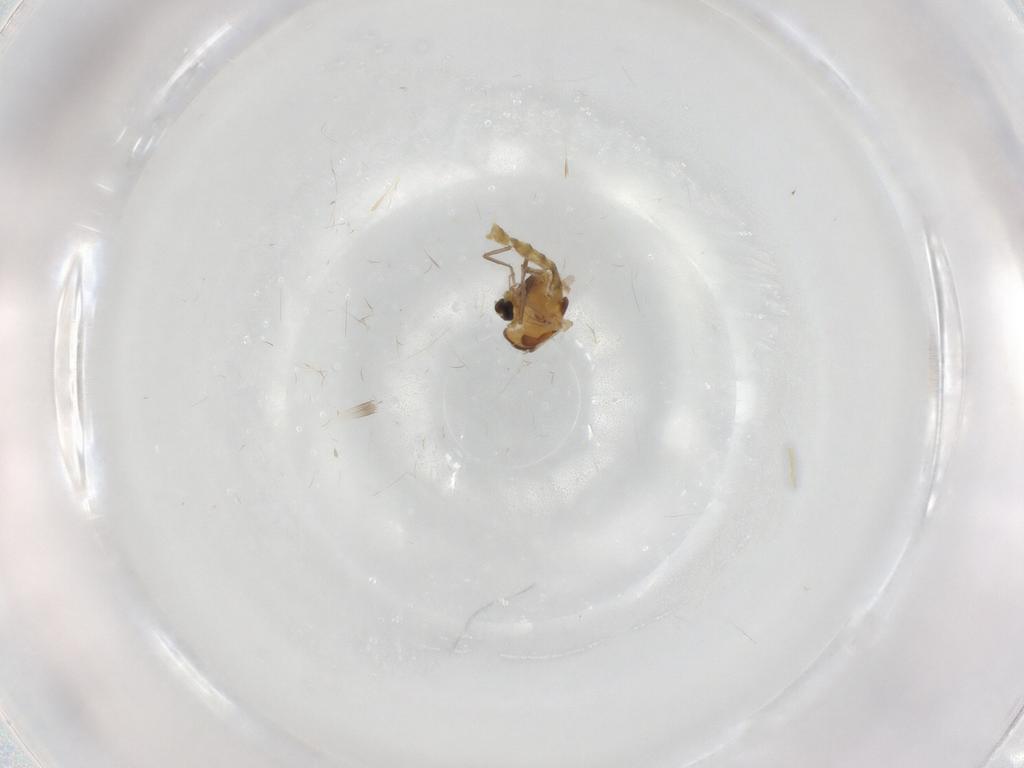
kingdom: Animalia
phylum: Arthropoda
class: Insecta
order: Diptera
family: Chironomidae
